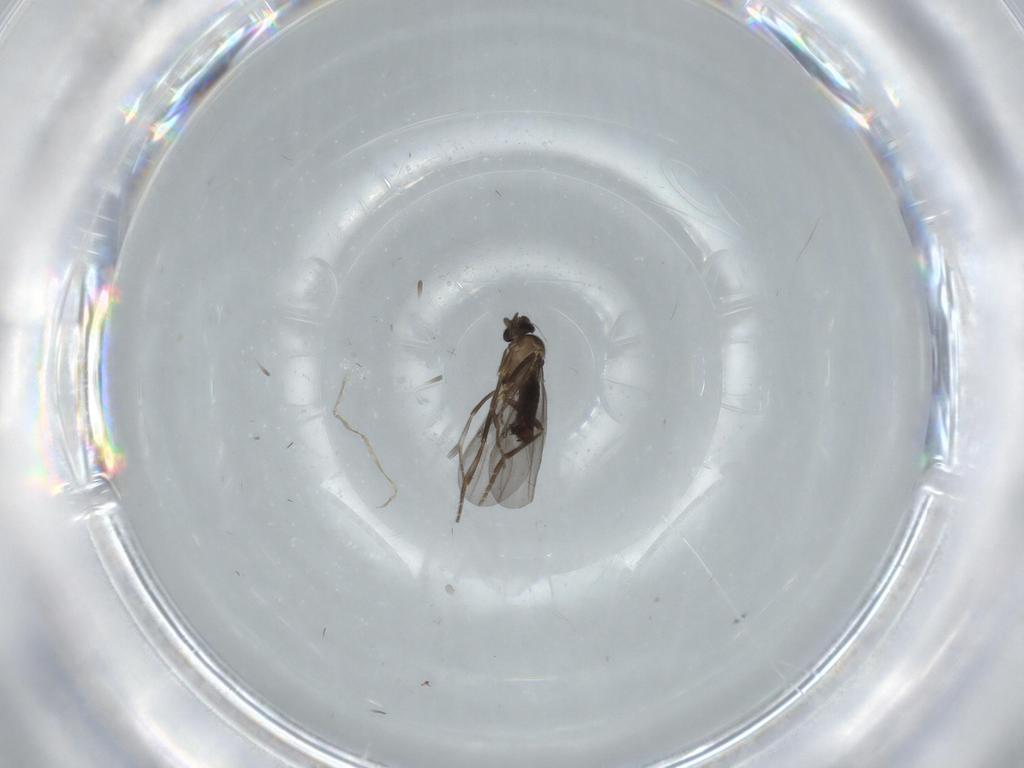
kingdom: Animalia
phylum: Arthropoda
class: Insecta
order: Diptera
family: Phoridae
